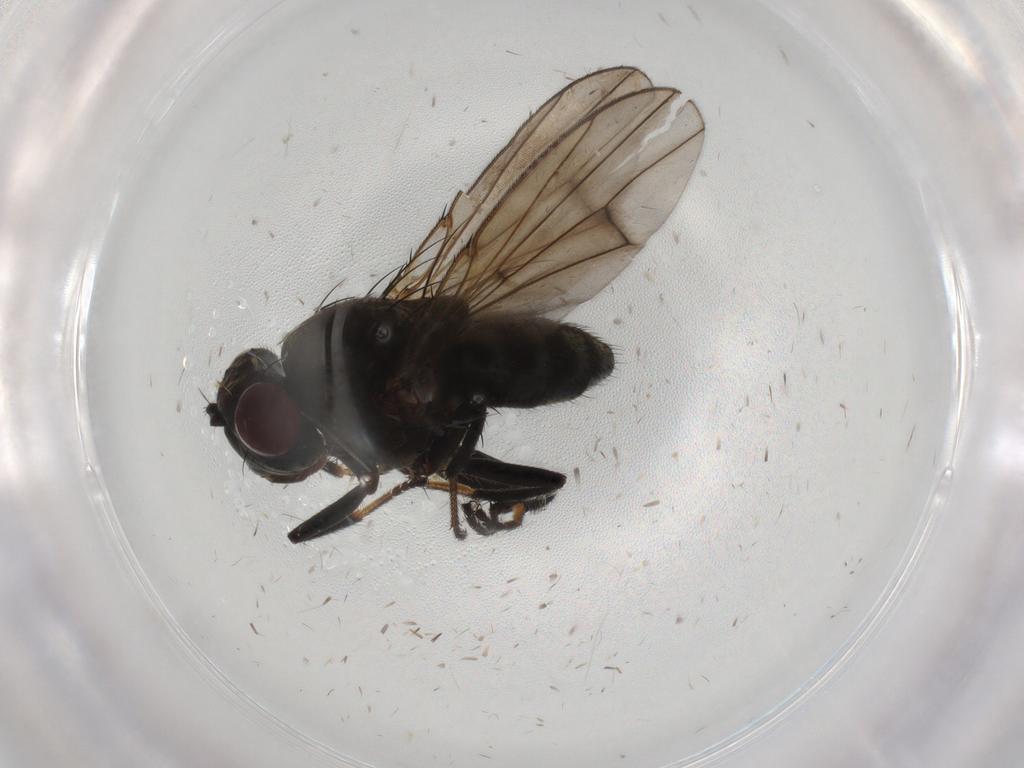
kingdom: Animalia
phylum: Arthropoda
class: Insecta
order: Diptera
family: Ephydridae
